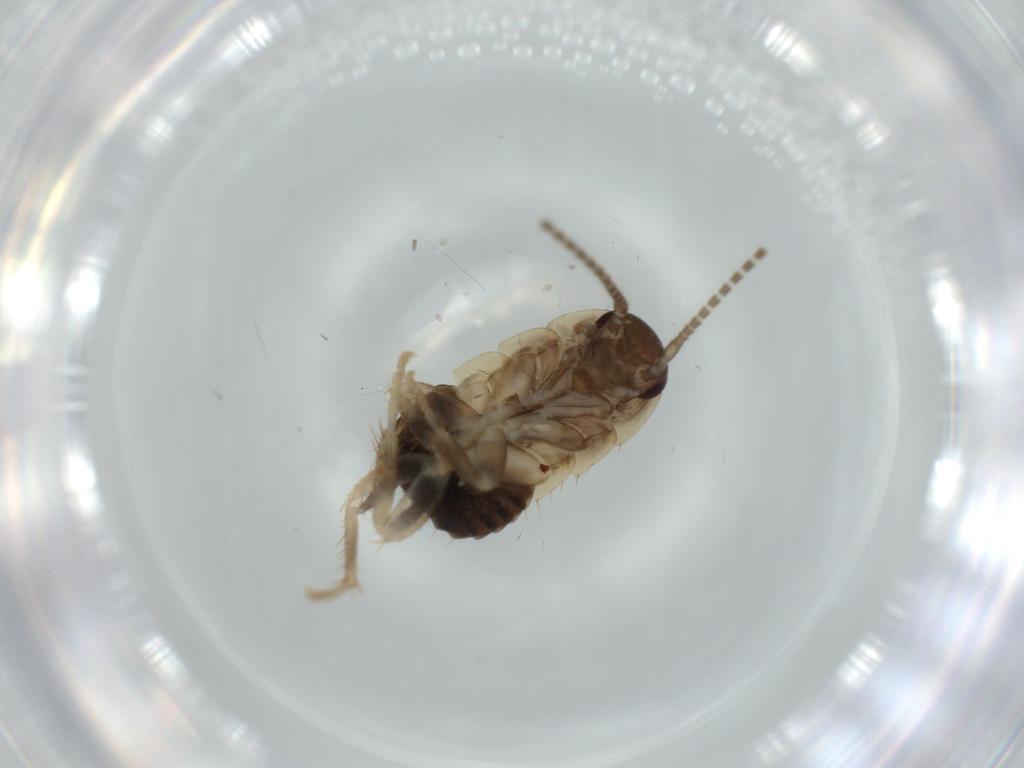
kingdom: Animalia
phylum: Arthropoda
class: Insecta
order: Blattodea
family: Ectobiidae
